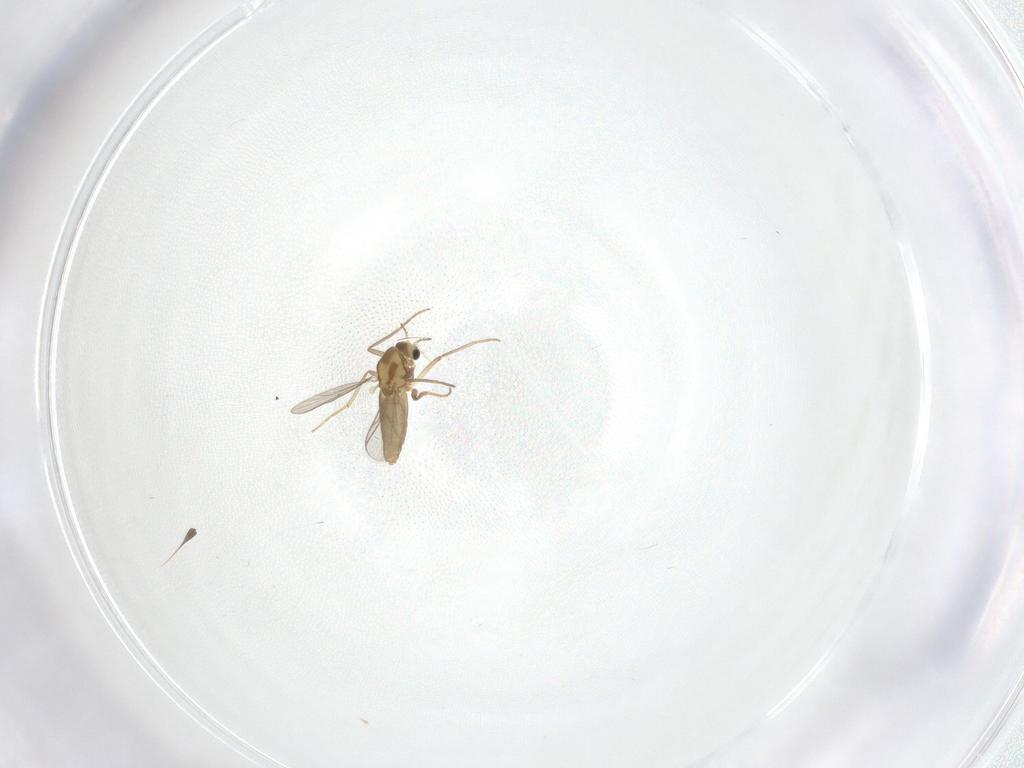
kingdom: Animalia
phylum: Arthropoda
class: Insecta
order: Diptera
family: Chironomidae
